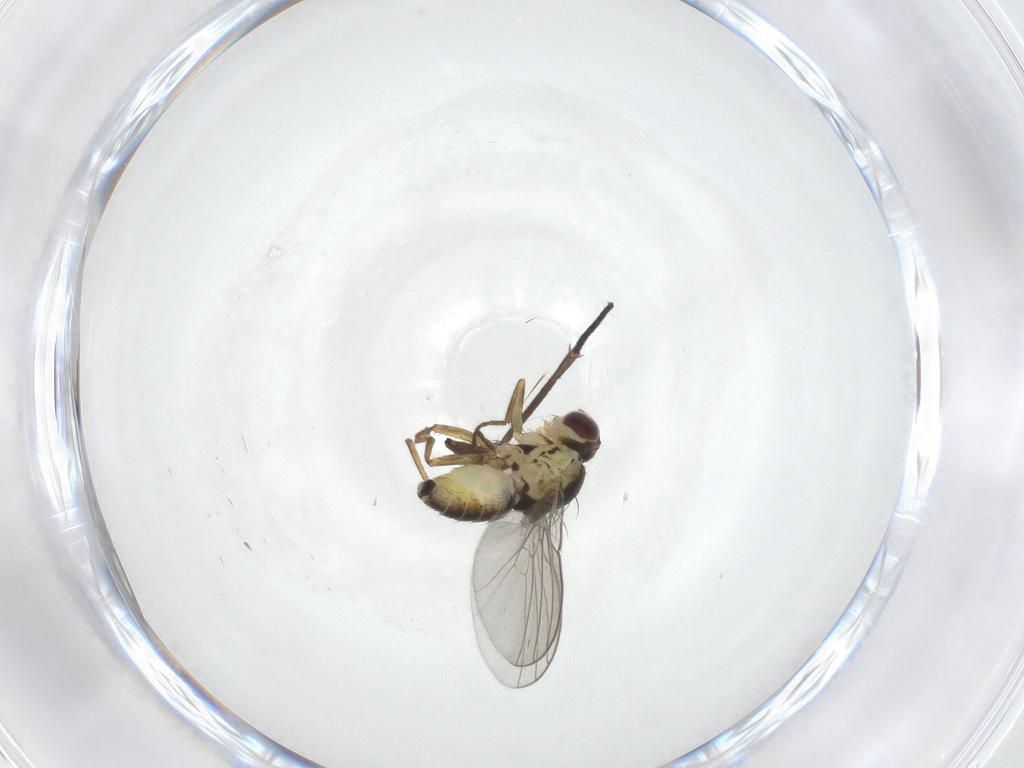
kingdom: Animalia
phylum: Arthropoda
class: Insecta
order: Diptera
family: Agromyzidae
